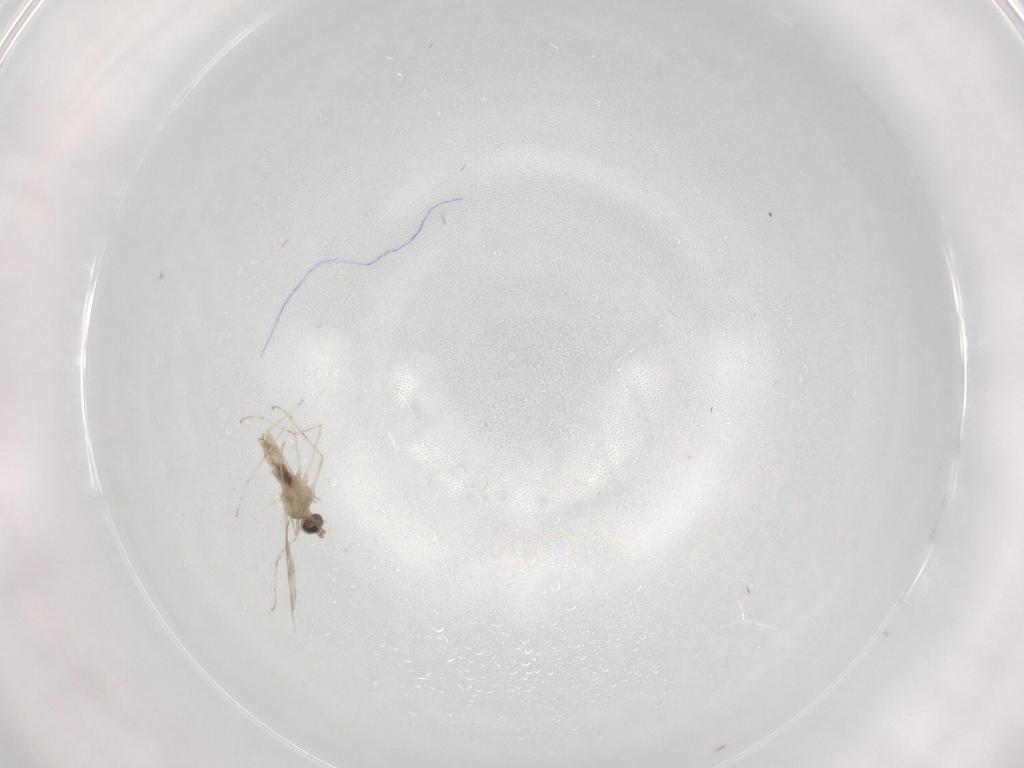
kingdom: Animalia
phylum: Arthropoda
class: Insecta
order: Diptera
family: Cecidomyiidae
